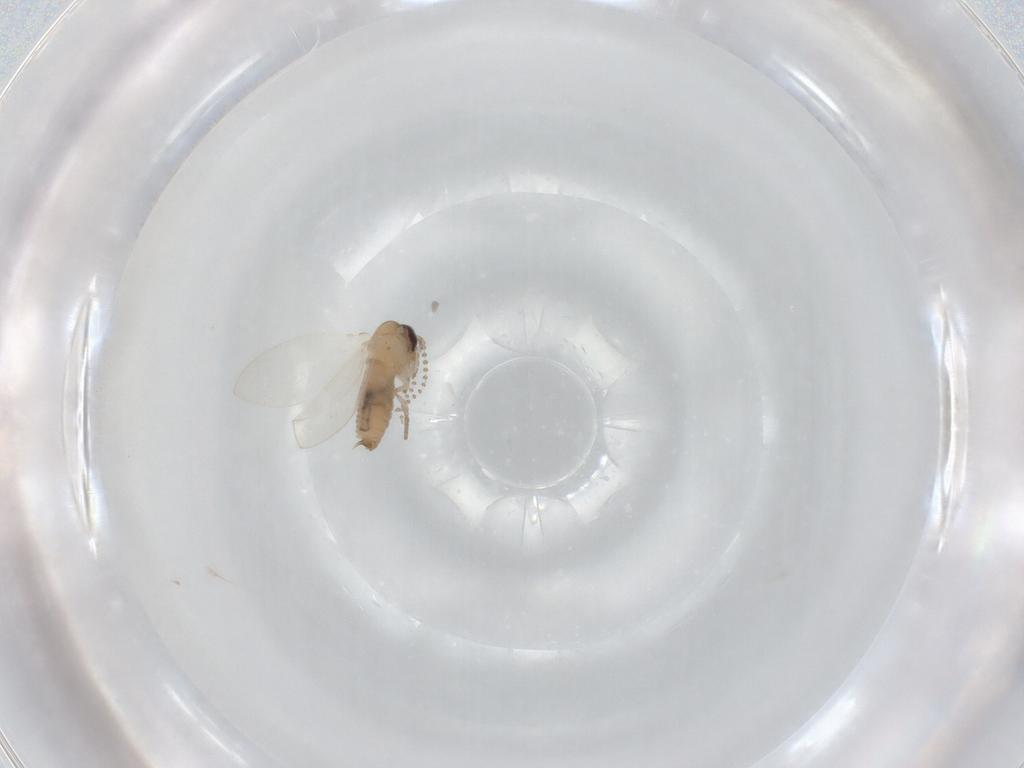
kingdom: Animalia
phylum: Arthropoda
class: Insecta
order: Diptera
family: Psychodidae
